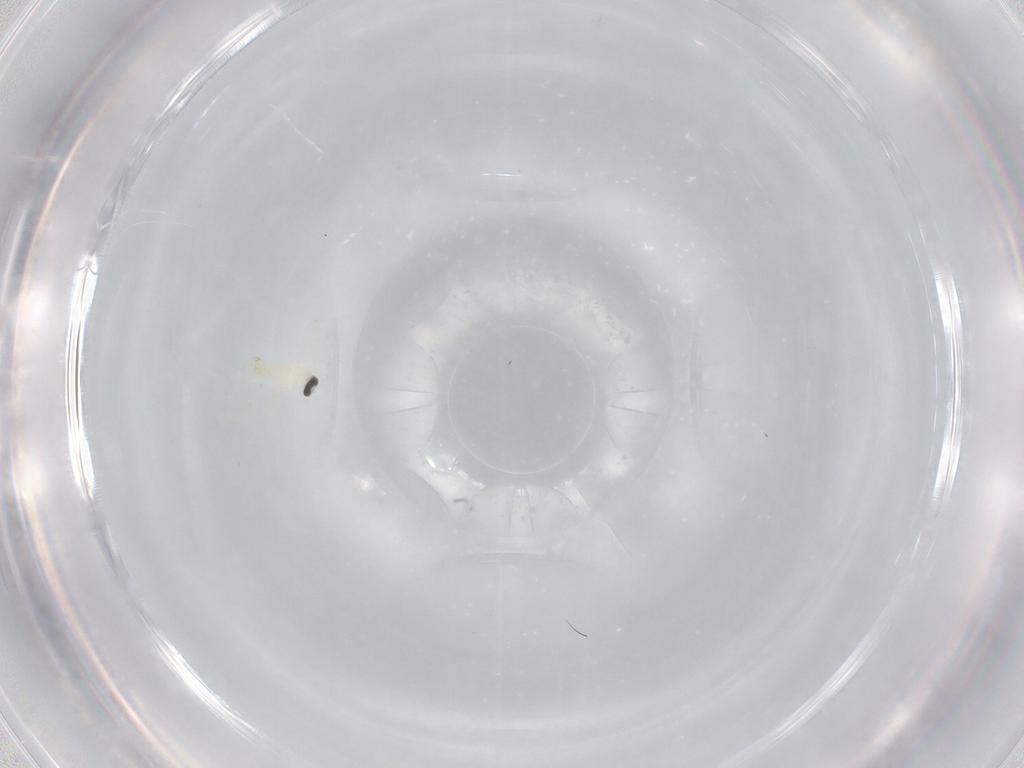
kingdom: Animalia
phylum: Arthropoda
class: Insecta
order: Diptera
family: Cecidomyiidae
